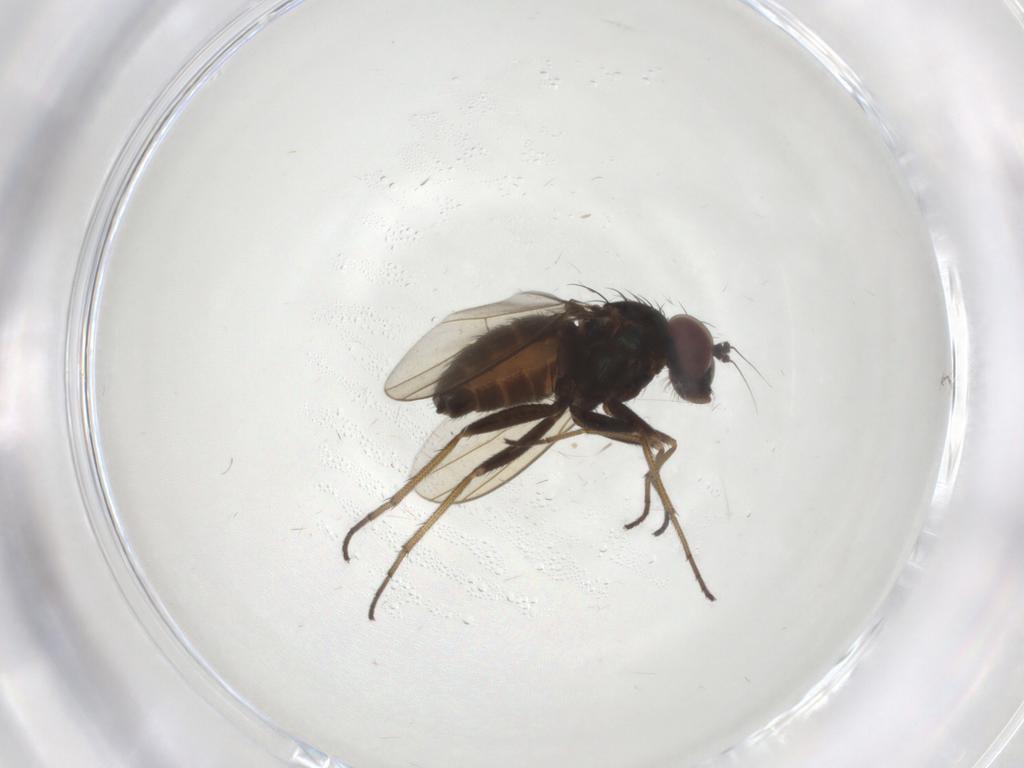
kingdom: Animalia
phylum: Arthropoda
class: Insecta
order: Diptera
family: Dolichopodidae
